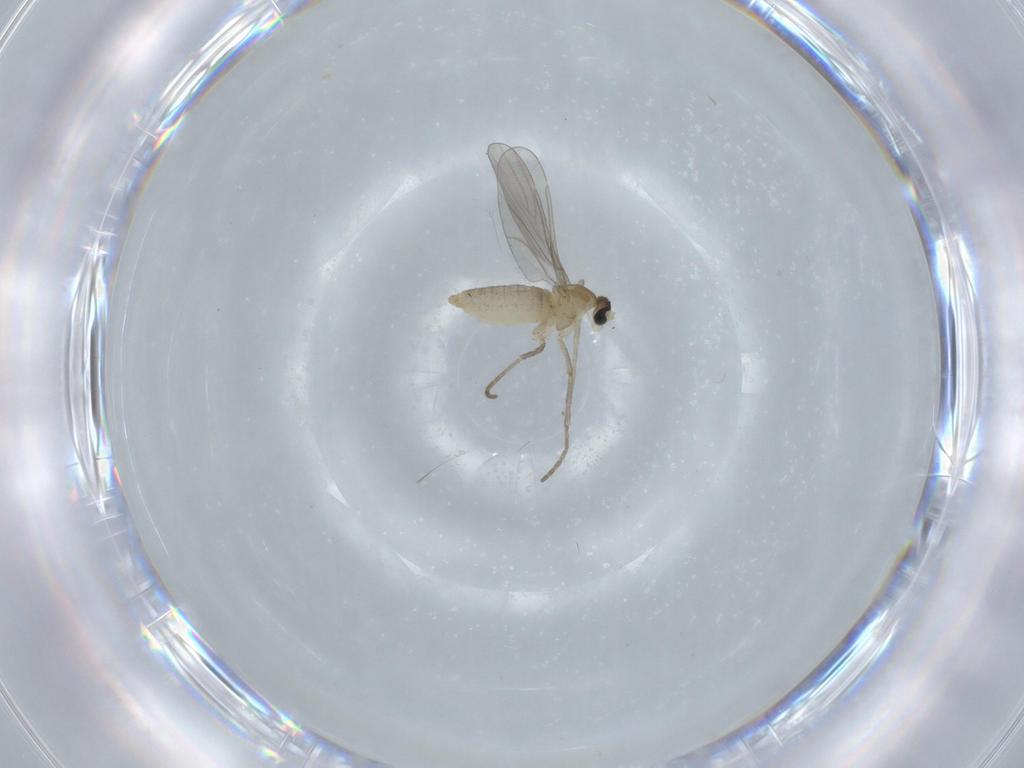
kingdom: Animalia
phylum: Arthropoda
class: Insecta
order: Diptera
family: Cecidomyiidae
